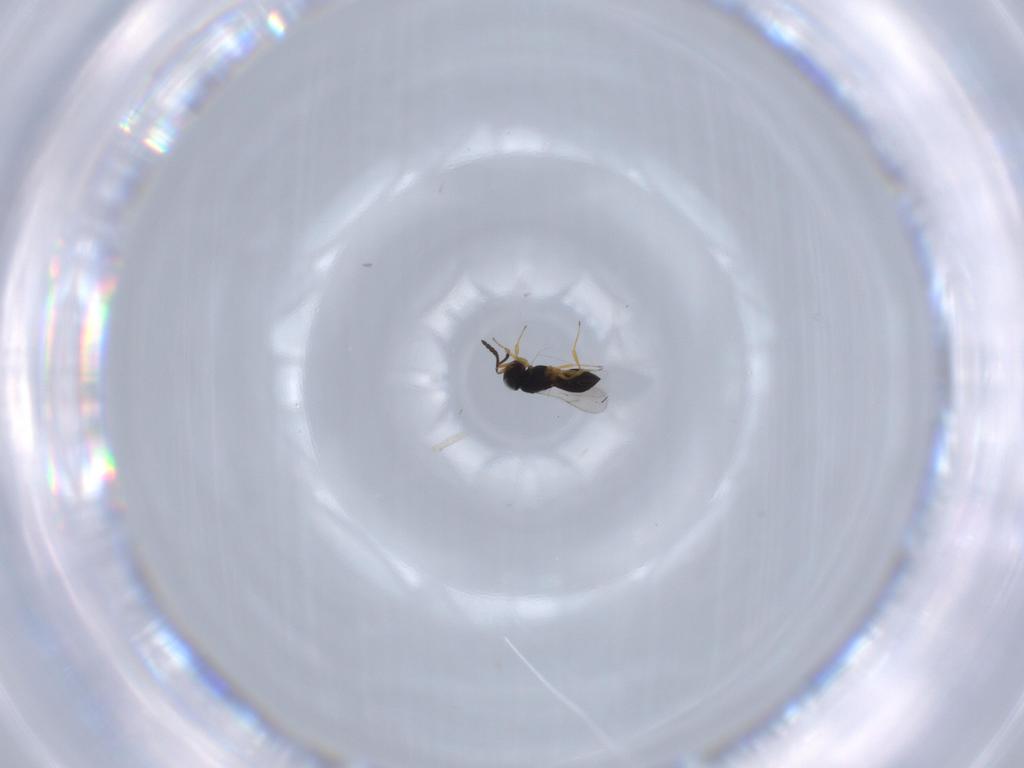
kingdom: Animalia
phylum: Arthropoda
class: Insecta
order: Hymenoptera
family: Scelionidae
